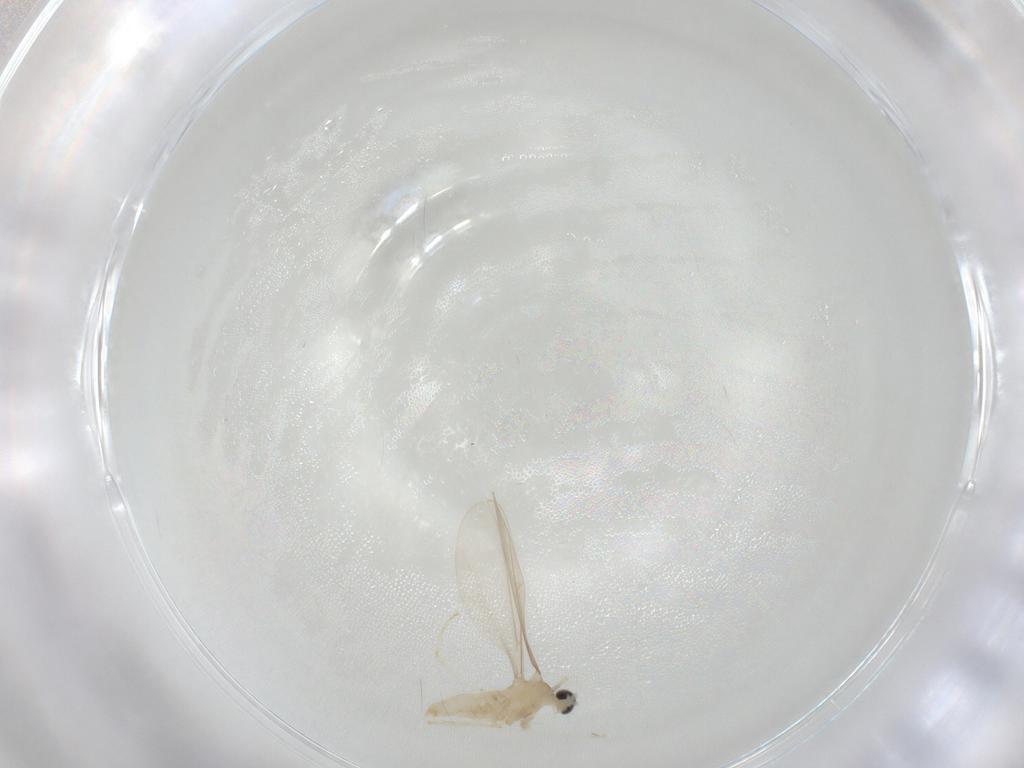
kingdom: Animalia
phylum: Arthropoda
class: Insecta
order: Diptera
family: Cecidomyiidae
